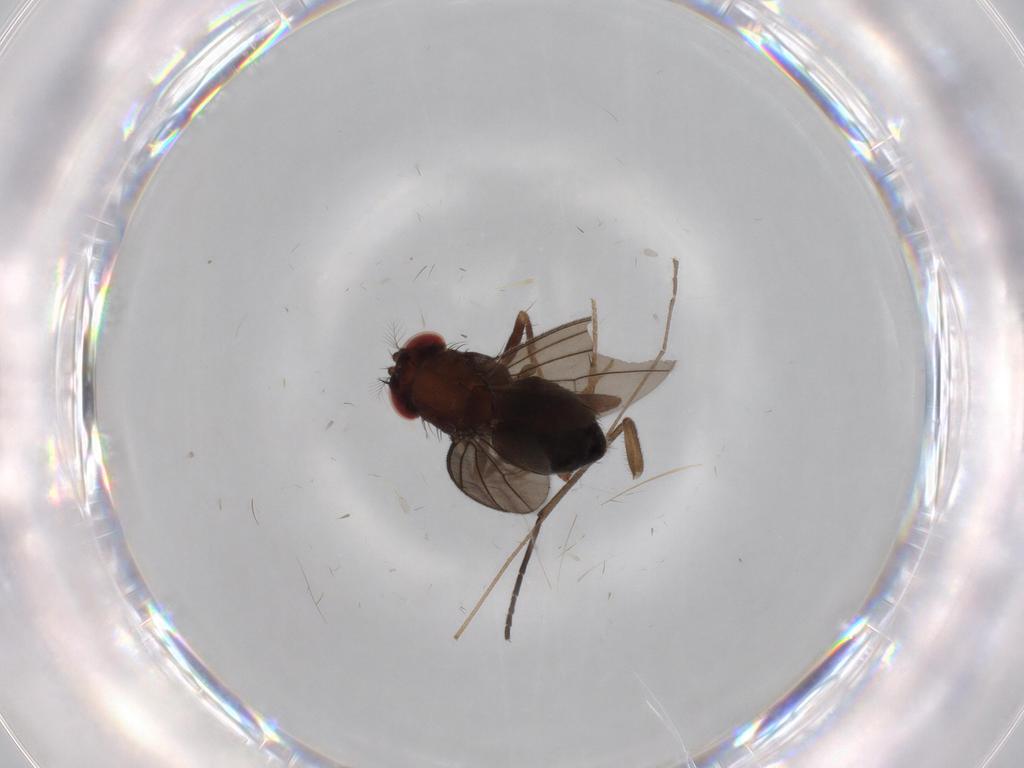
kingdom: Animalia
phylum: Arthropoda
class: Insecta
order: Diptera
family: Drosophilidae
